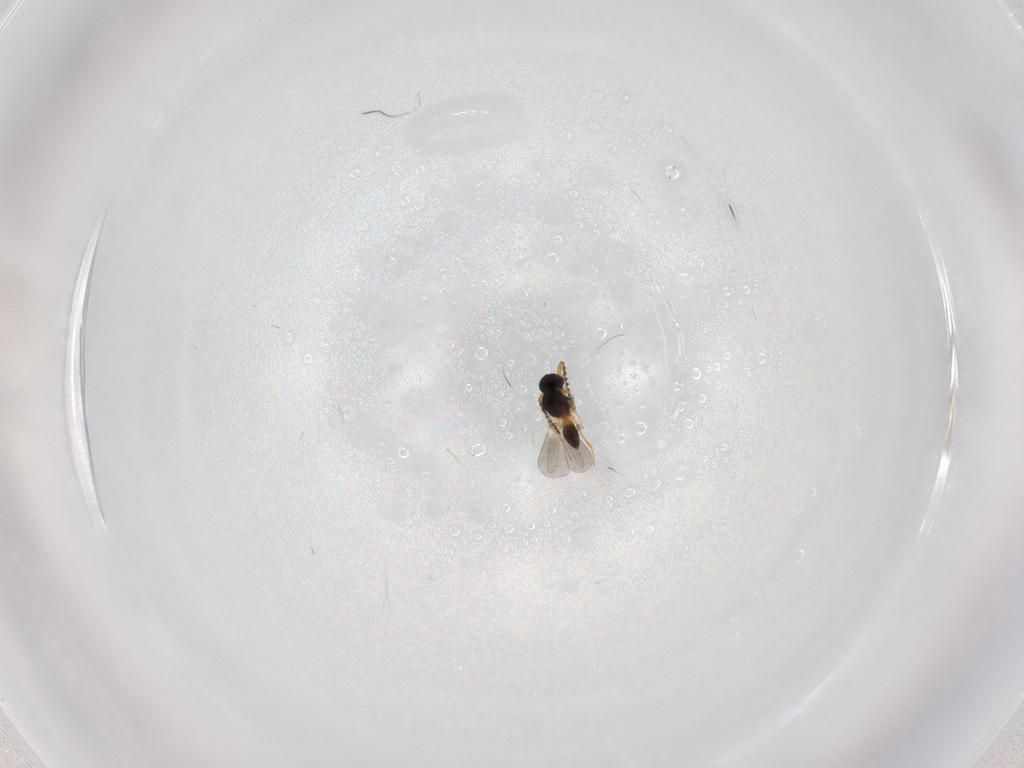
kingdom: Animalia
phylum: Arthropoda
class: Insecta
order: Hymenoptera
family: Platygastridae
